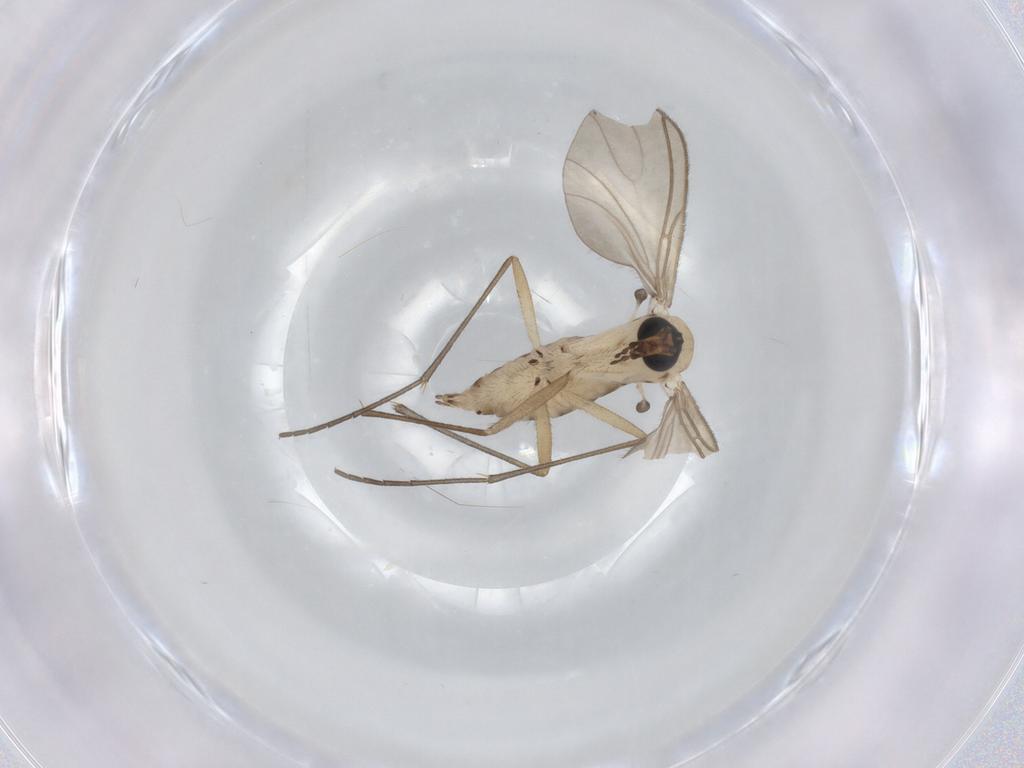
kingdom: Animalia
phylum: Arthropoda
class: Insecta
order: Diptera
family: Sciaridae
